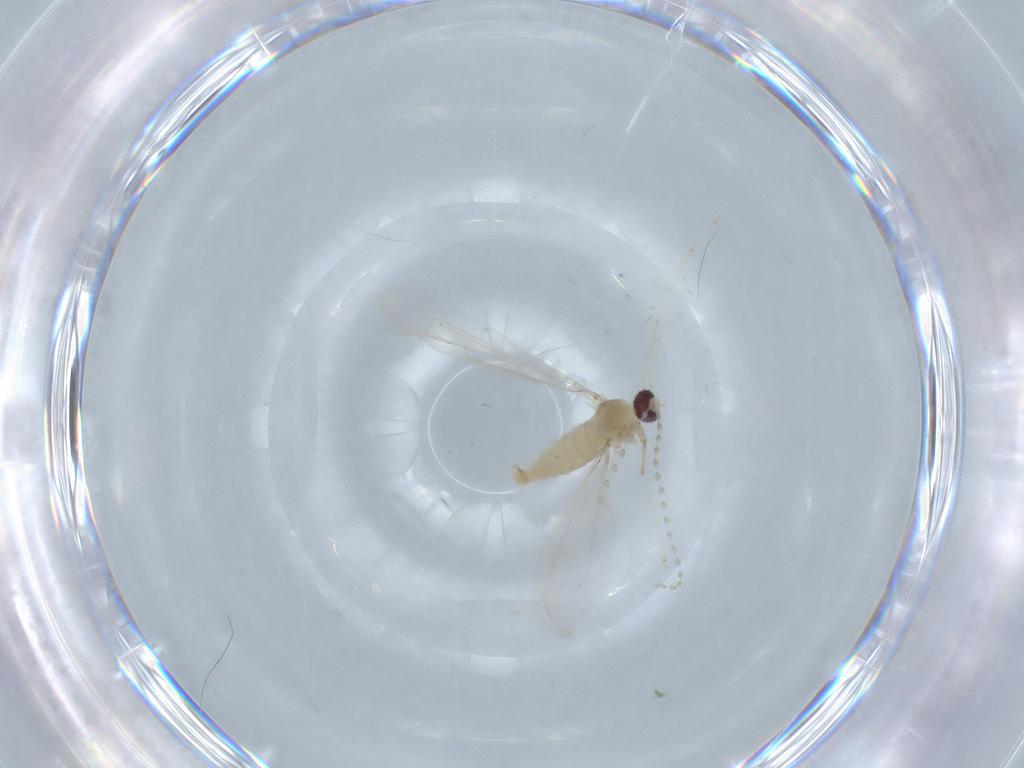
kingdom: Animalia
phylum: Arthropoda
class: Insecta
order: Diptera
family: Cecidomyiidae
